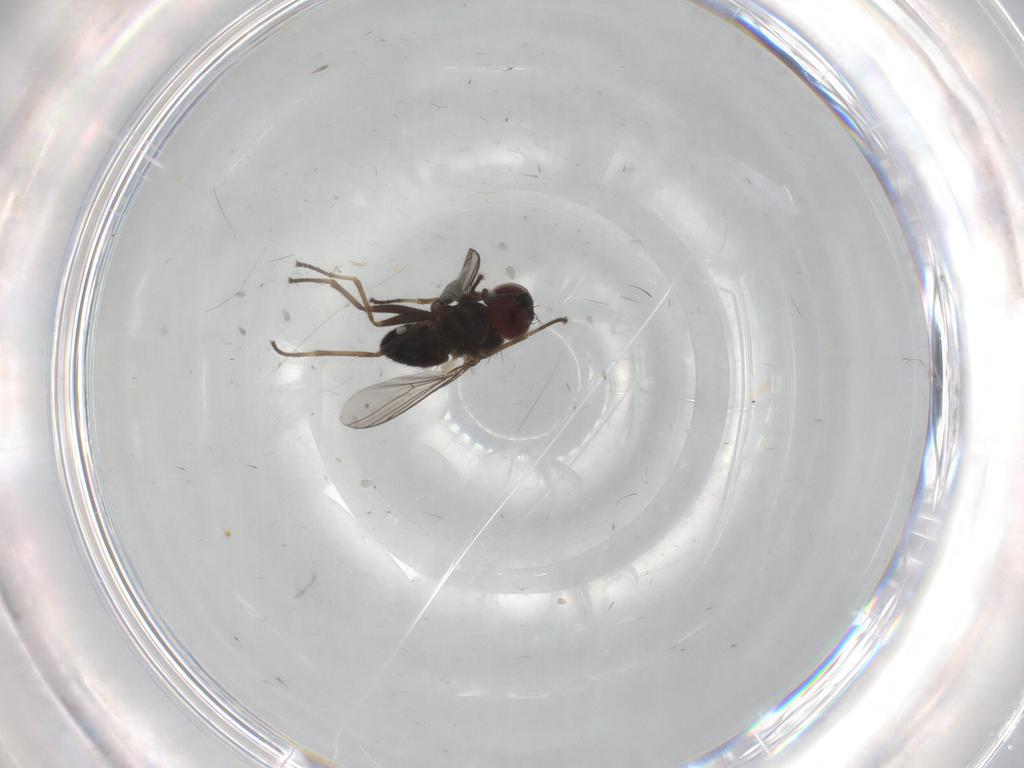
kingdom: Animalia
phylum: Arthropoda
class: Insecta
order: Diptera
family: Dolichopodidae
